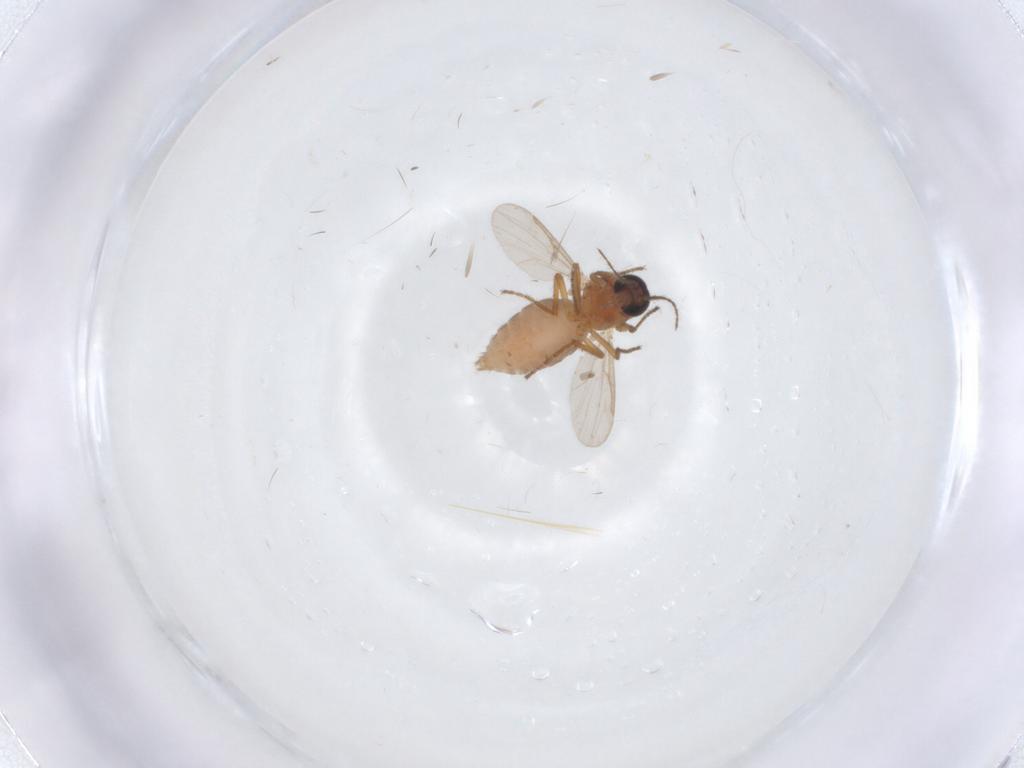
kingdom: Animalia
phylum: Arthropoda
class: Insecta
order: Diptera
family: Ceratopogonidae
